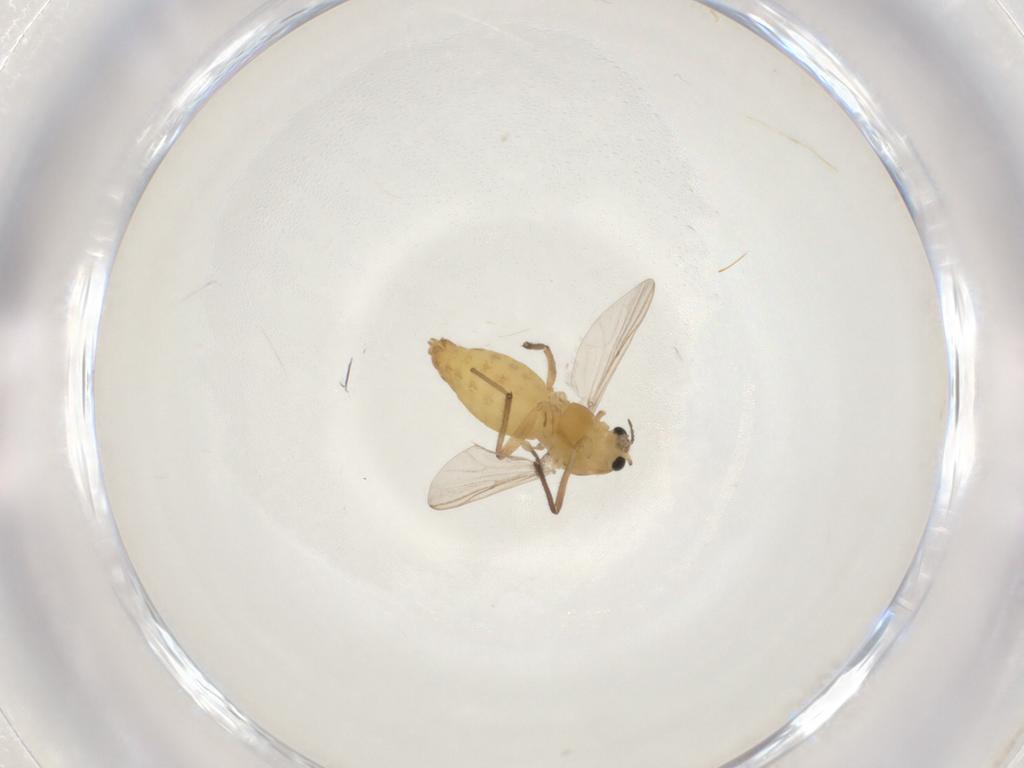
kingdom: Animalia
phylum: Arthropoda
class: Insecta
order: Diptera
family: Chironomidae
